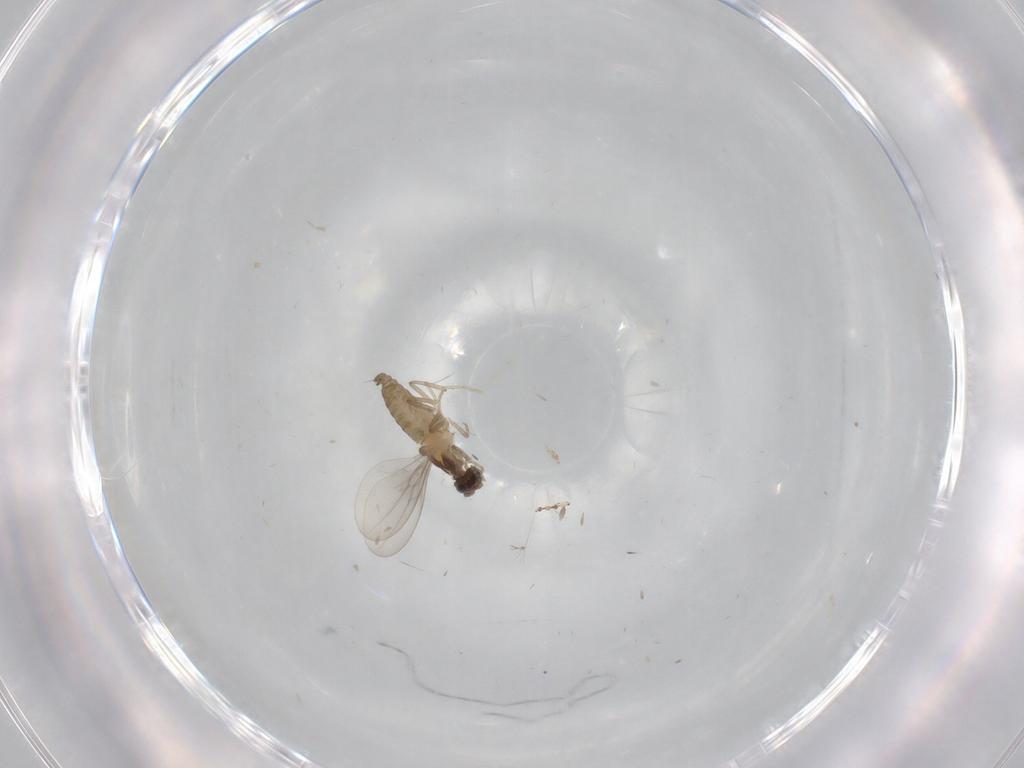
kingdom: Animalia
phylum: Arthropoda
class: Insecta
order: Diptera
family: Cecidomyiidae
